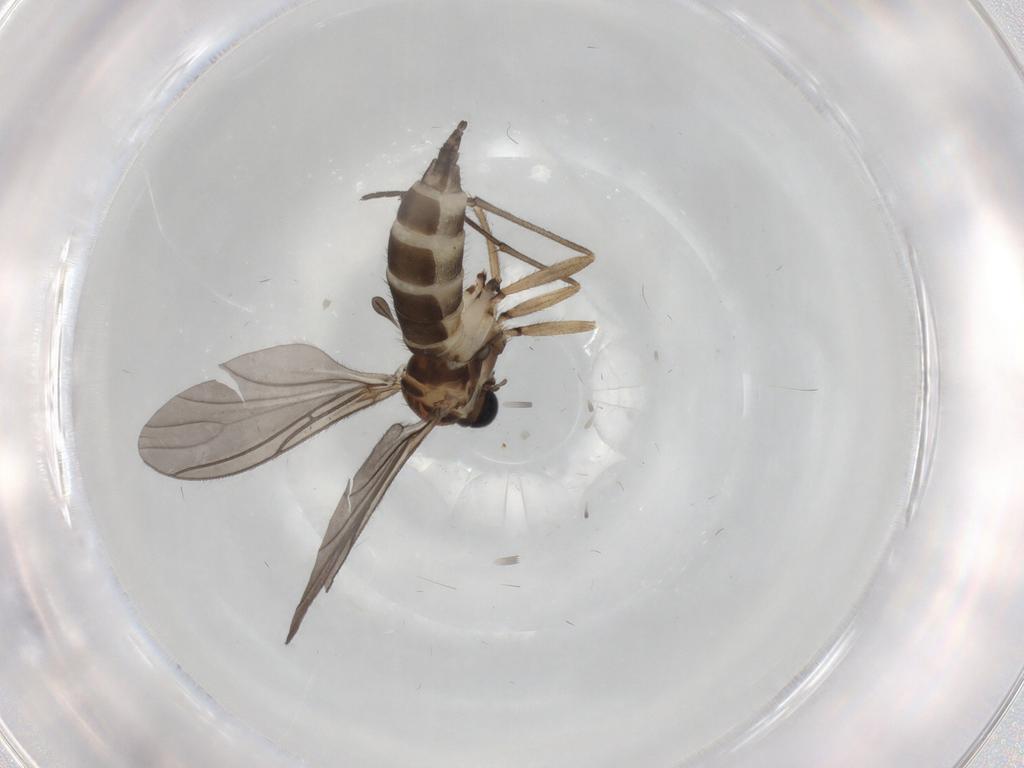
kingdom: Animalia
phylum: Arthropoda
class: Insecta
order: Diptera
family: Sciaridae
